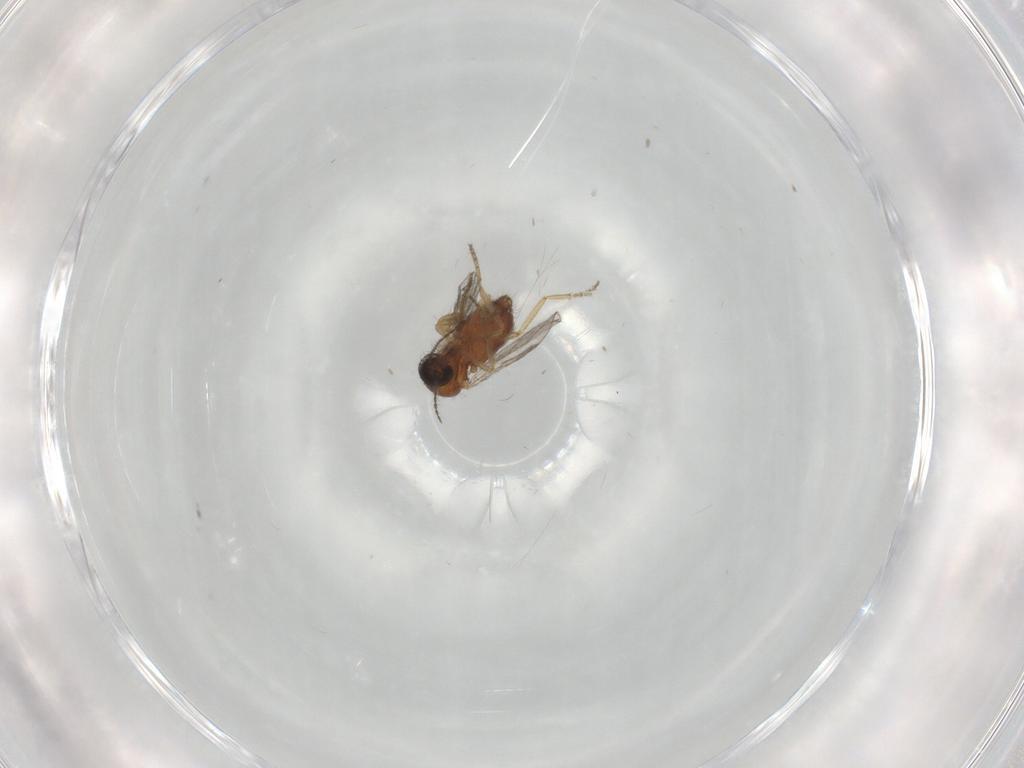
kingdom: Animalia
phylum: Arthropoda
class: Insecta
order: Diptera
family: Ceratopogonidae
